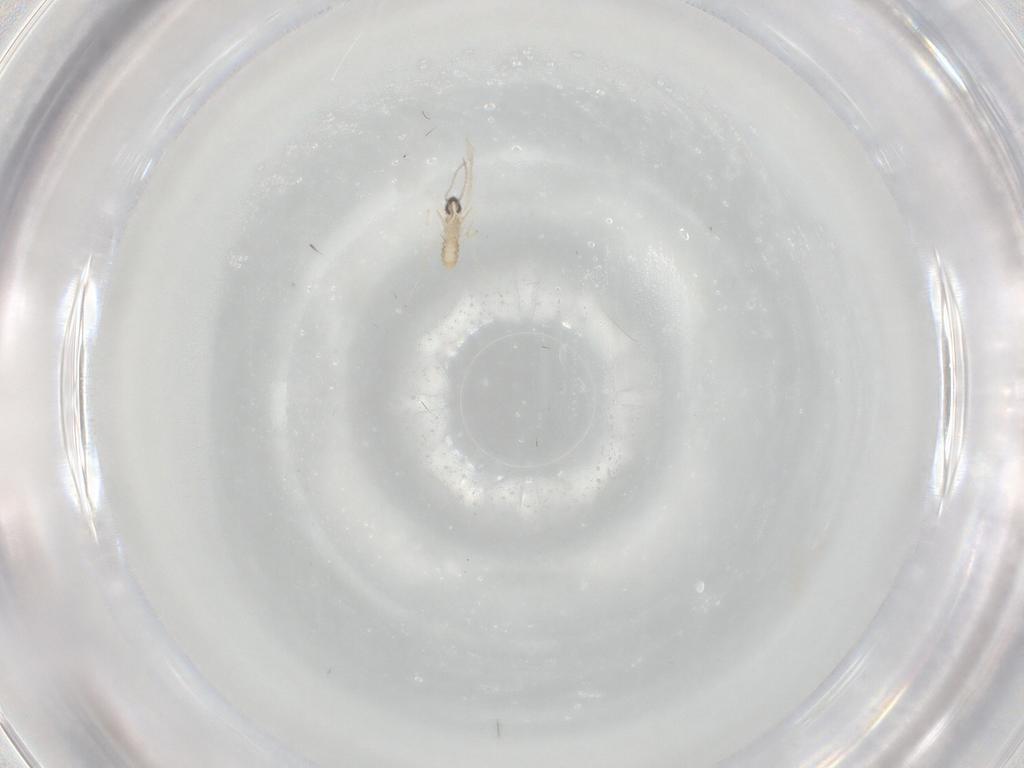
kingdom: Animalia
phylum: Arthropoda
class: Insecta
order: Diptera
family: Cecidomyiidae
